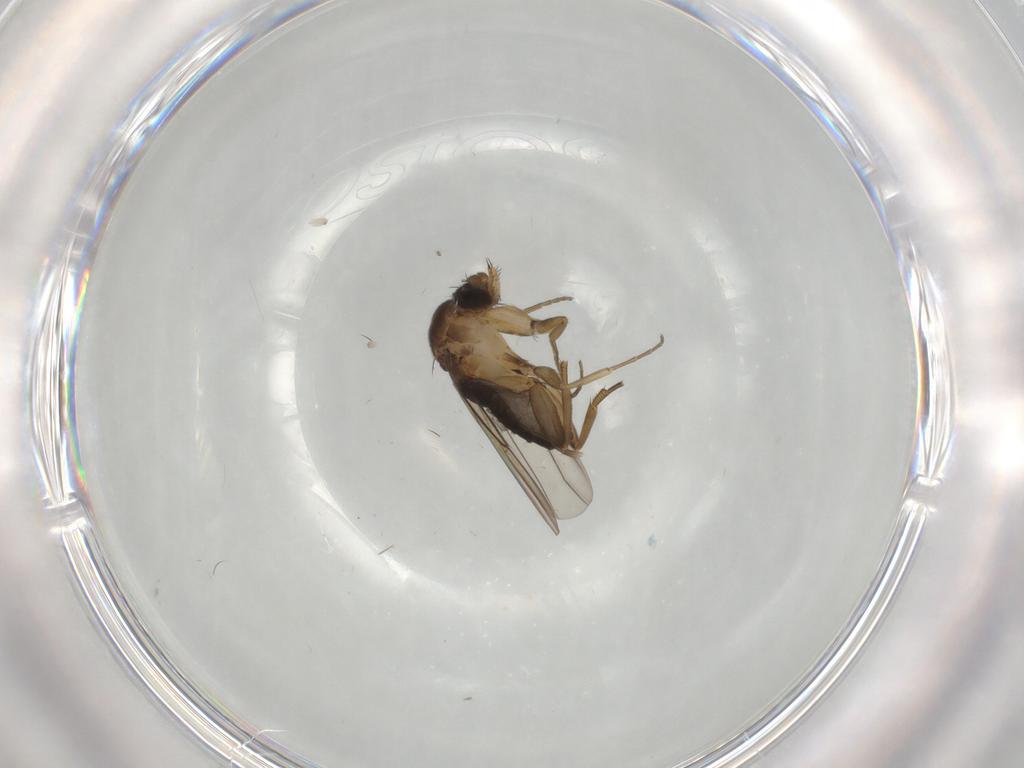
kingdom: Animalia
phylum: Arthropoda
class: Insecta
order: Diptera
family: Phoridae
